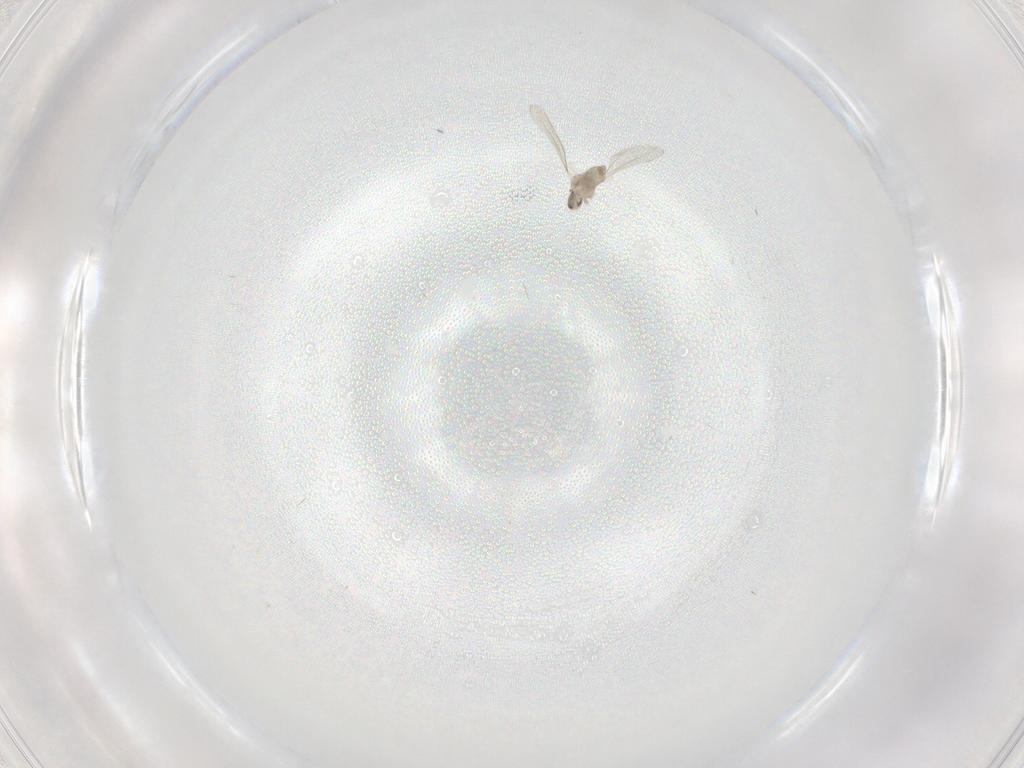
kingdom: Animalia
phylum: Arthropoda
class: Insecta
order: Diptera
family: Cecidomyiidae
